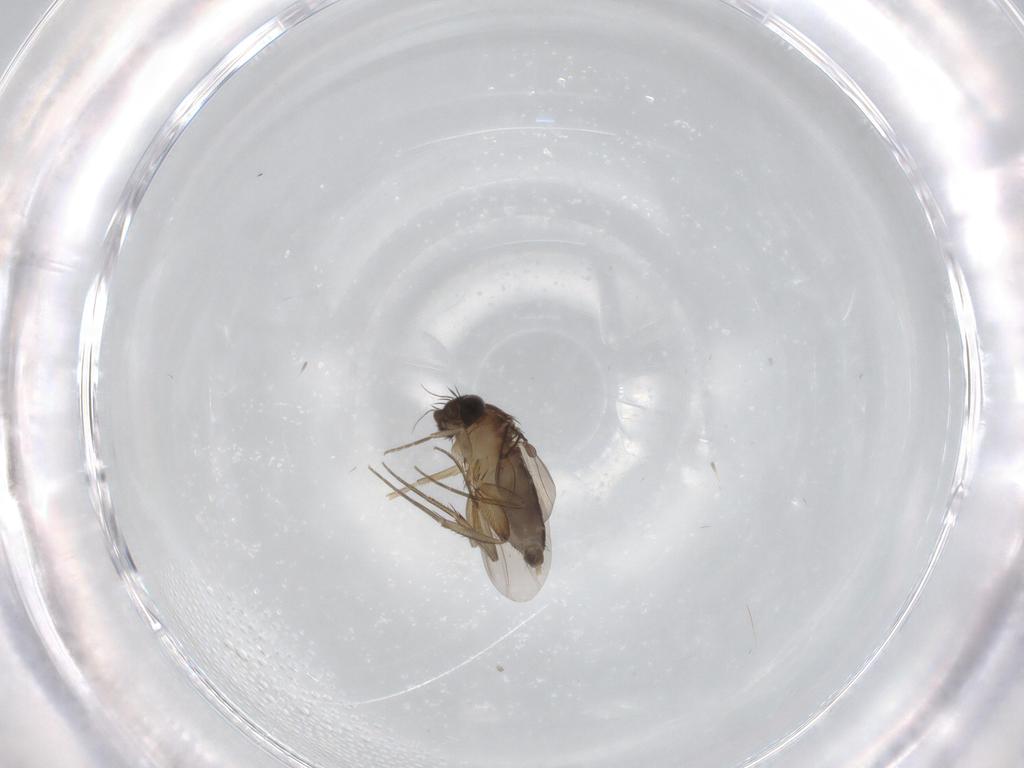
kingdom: Animalia
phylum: Arthropoda
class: Insecta
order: Diptera
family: Phoridae
